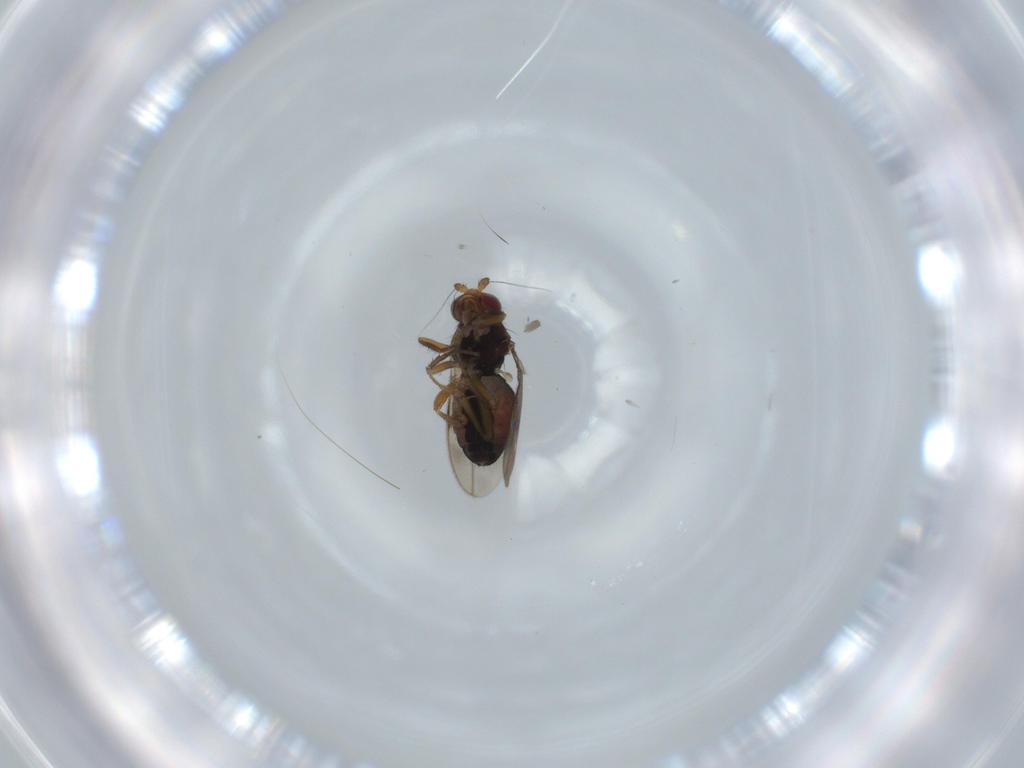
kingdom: Animalia
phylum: Arthropoda
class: Insecta
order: Diptera
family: Sphaeroceridae
